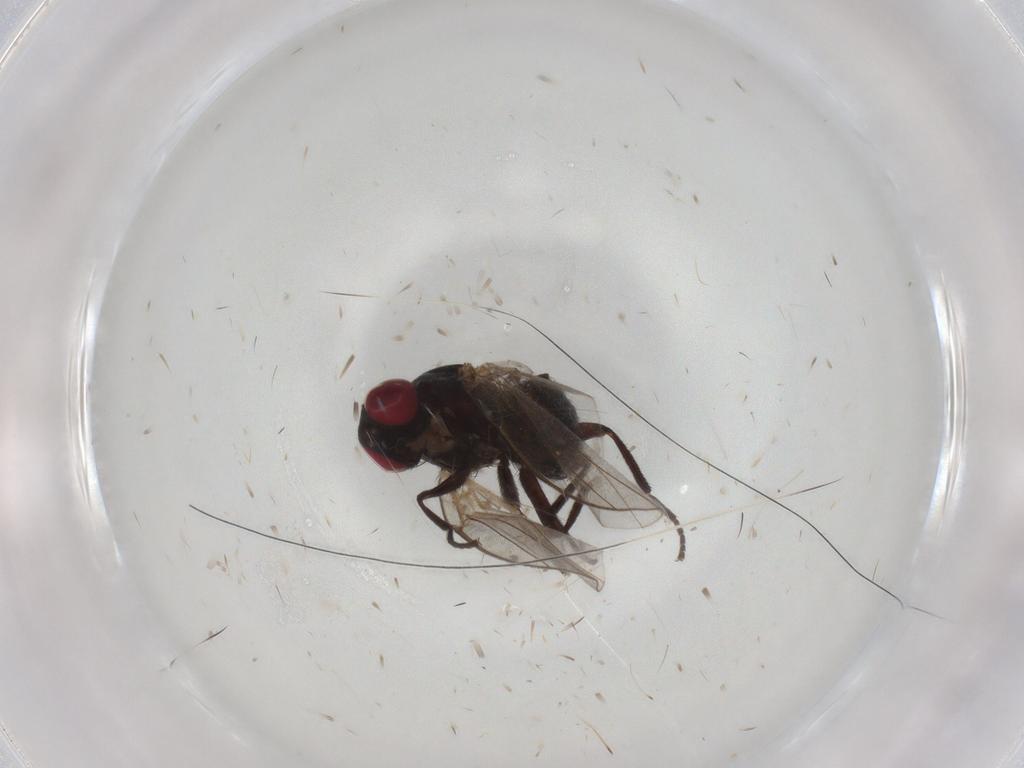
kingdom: Animalia
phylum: Arthropoda
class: Insecta
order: Diptera
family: Agromyzidae
